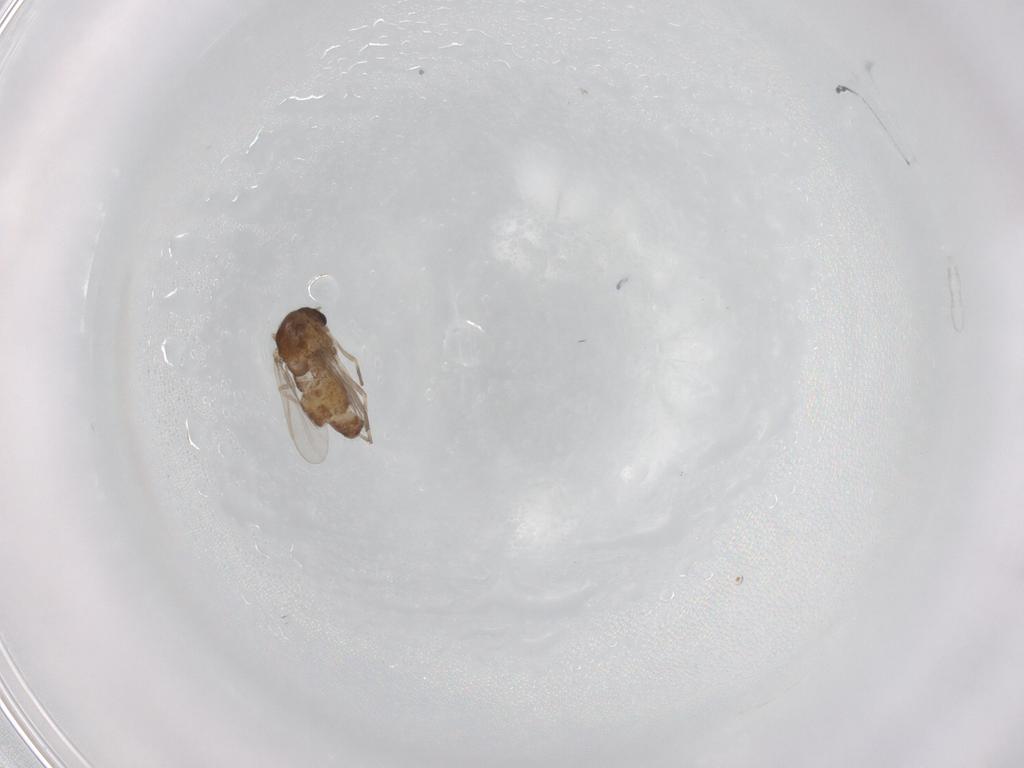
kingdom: Animalia
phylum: Arthropoda
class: Insecta
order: Diptera
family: Chironomidae
